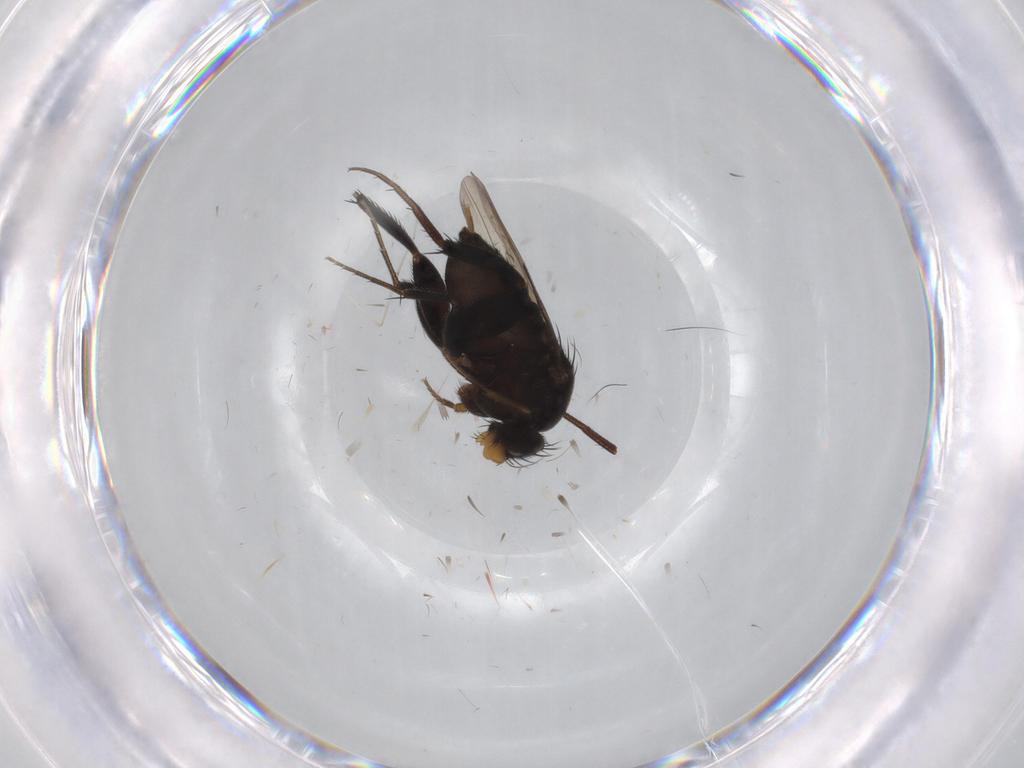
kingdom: Animalia
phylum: Arthropoda
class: Insecta
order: Diptera
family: Phoridae
